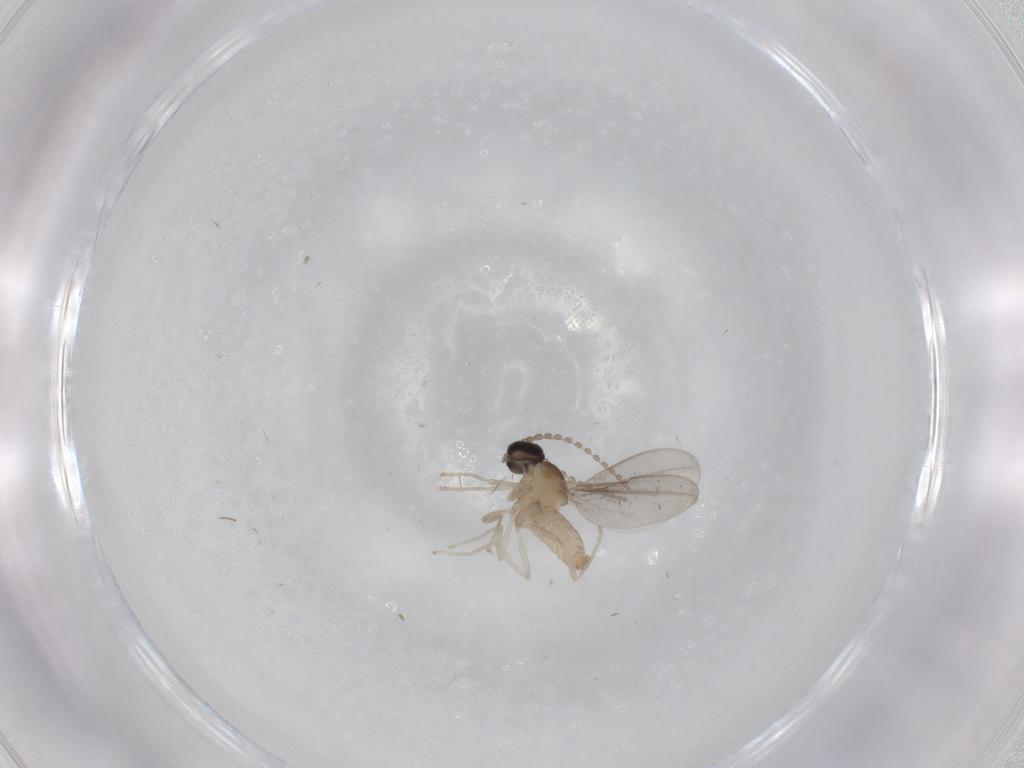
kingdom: Animalia
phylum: Arthropoda
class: Insecta
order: Diptera
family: Cecidomyiidae
